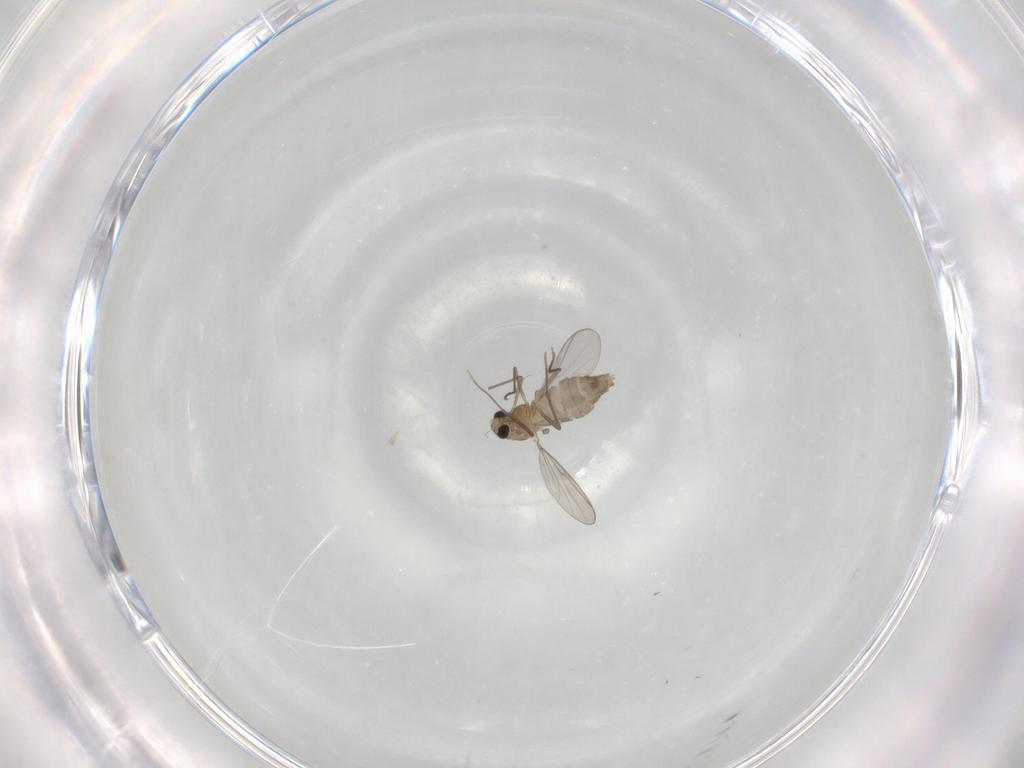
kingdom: Animalia
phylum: Arthropoda
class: Insecta
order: Diptera
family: Chironomidae
